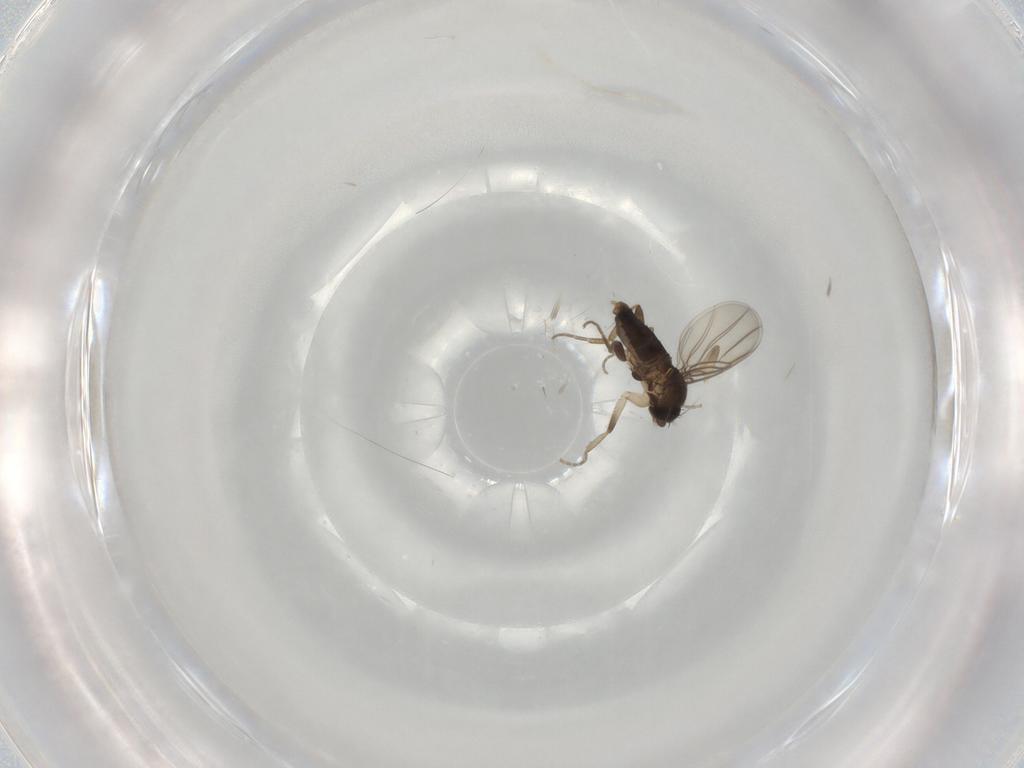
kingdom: Animalia
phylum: Arthropoda
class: Insecta
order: Diptera
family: Phoridae
